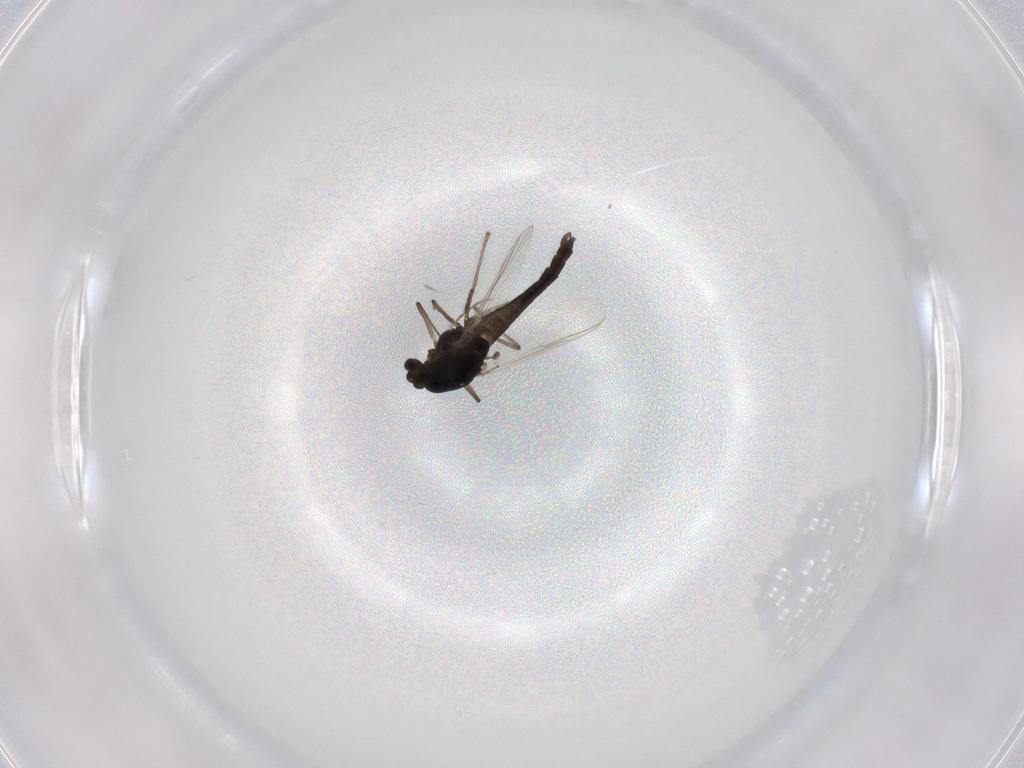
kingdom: Animalia
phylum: Arthropoda
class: Insecta
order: Diptera
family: Chironomidae
